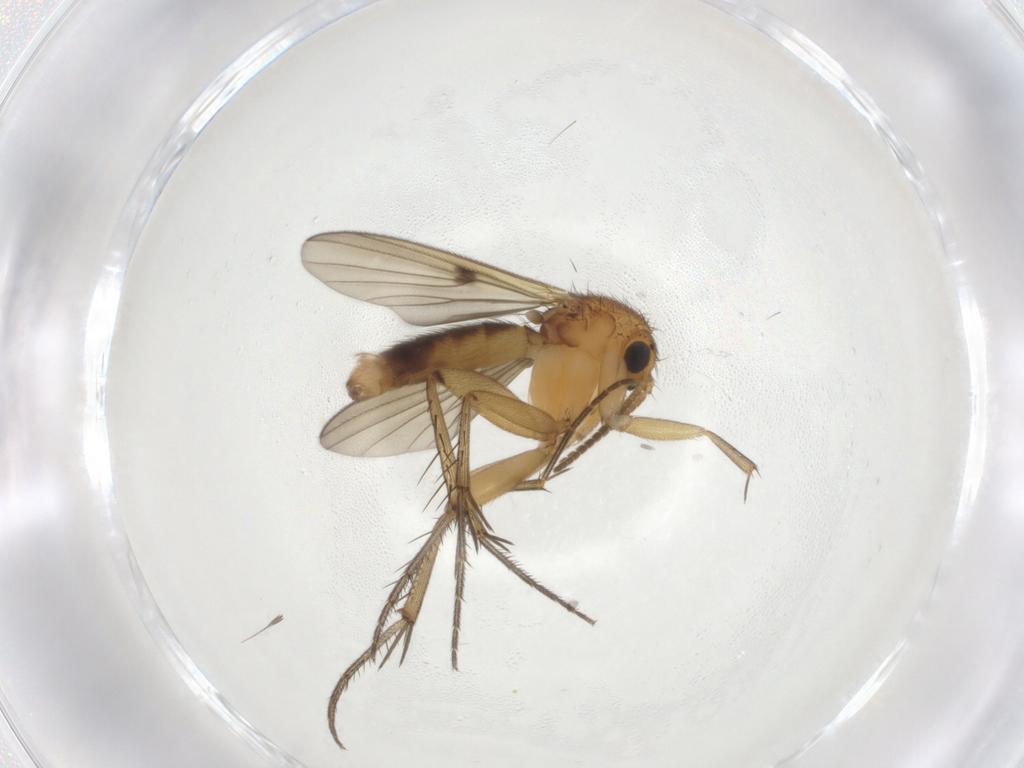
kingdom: Animalia
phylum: Arthropoda
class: Insecta
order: Diptera
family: Mycetophilidae
